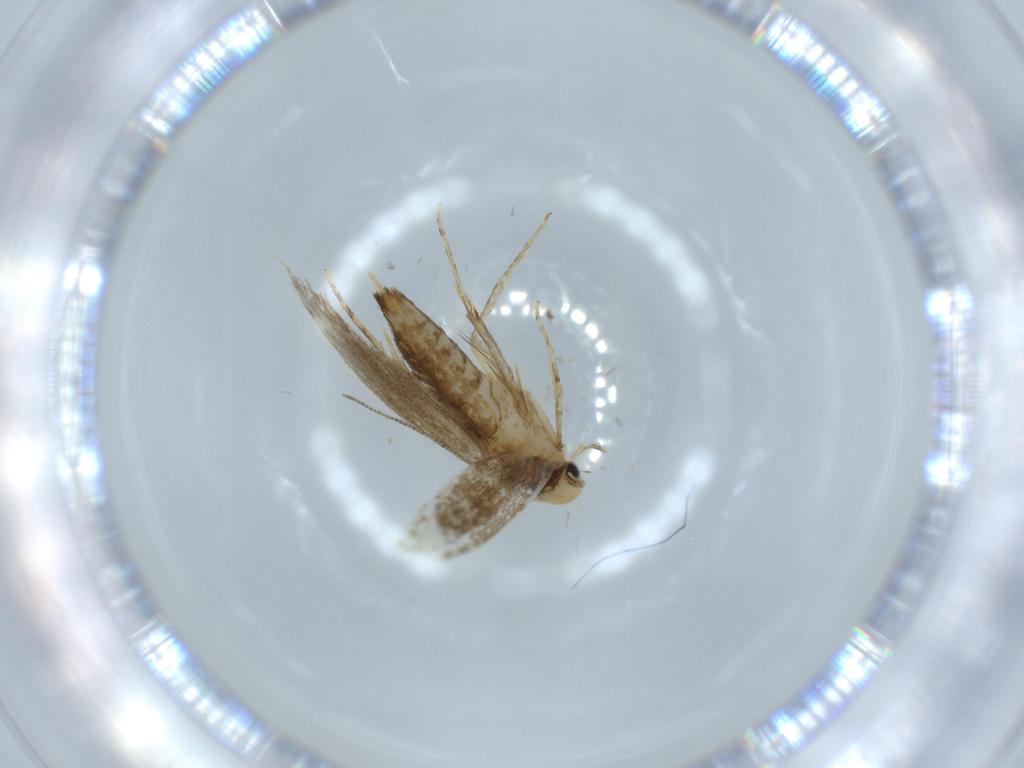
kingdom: Animalia
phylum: Arthropoda
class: Insecta
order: Lepidoptera
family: Tineidae
